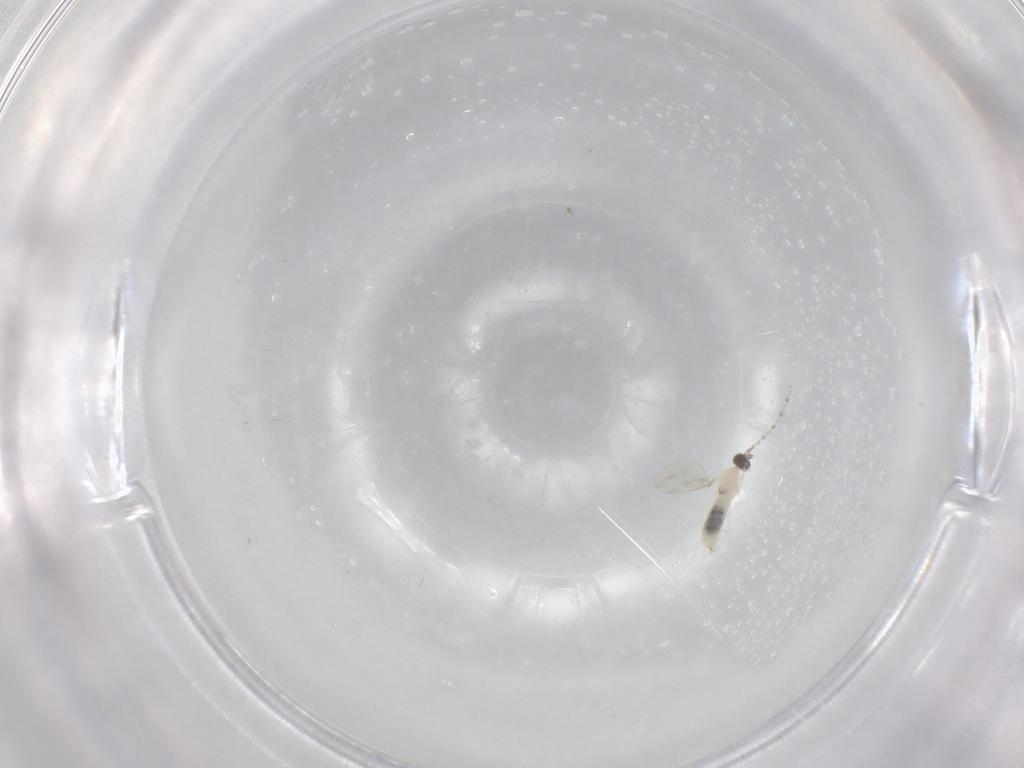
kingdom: Animalia
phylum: Arthropoda
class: Insecta
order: Diptera
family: Cecidomyiidae
